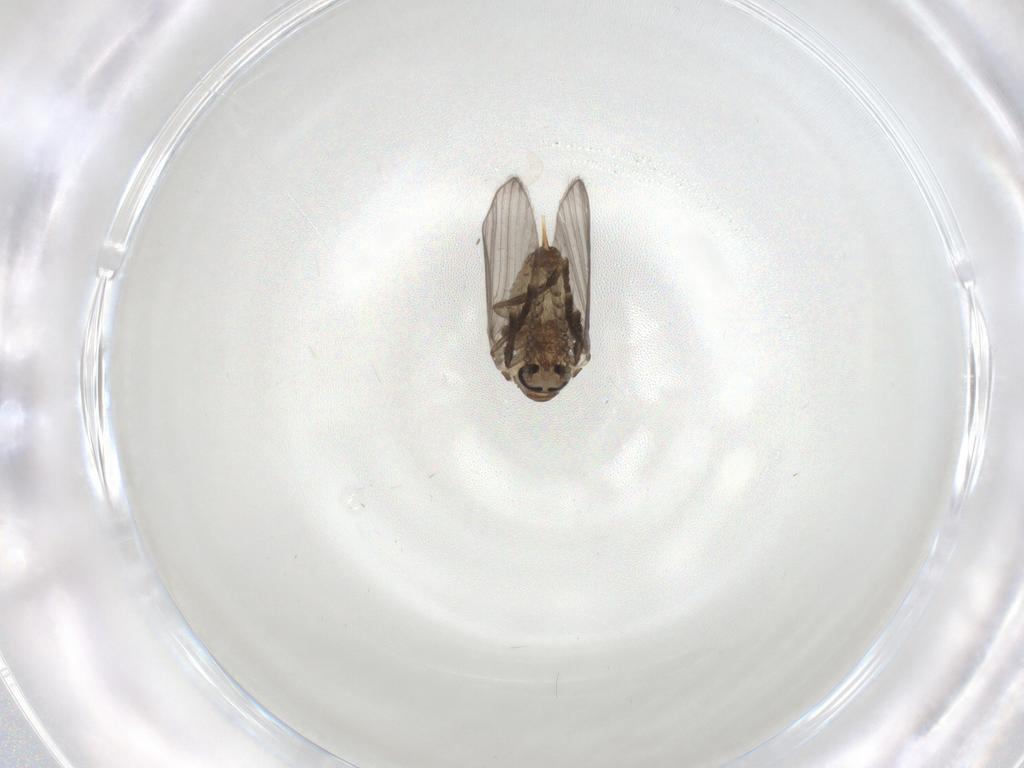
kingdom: Animalia
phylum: Arthropoda
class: Insecta
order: Diptera
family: Psychodidae
